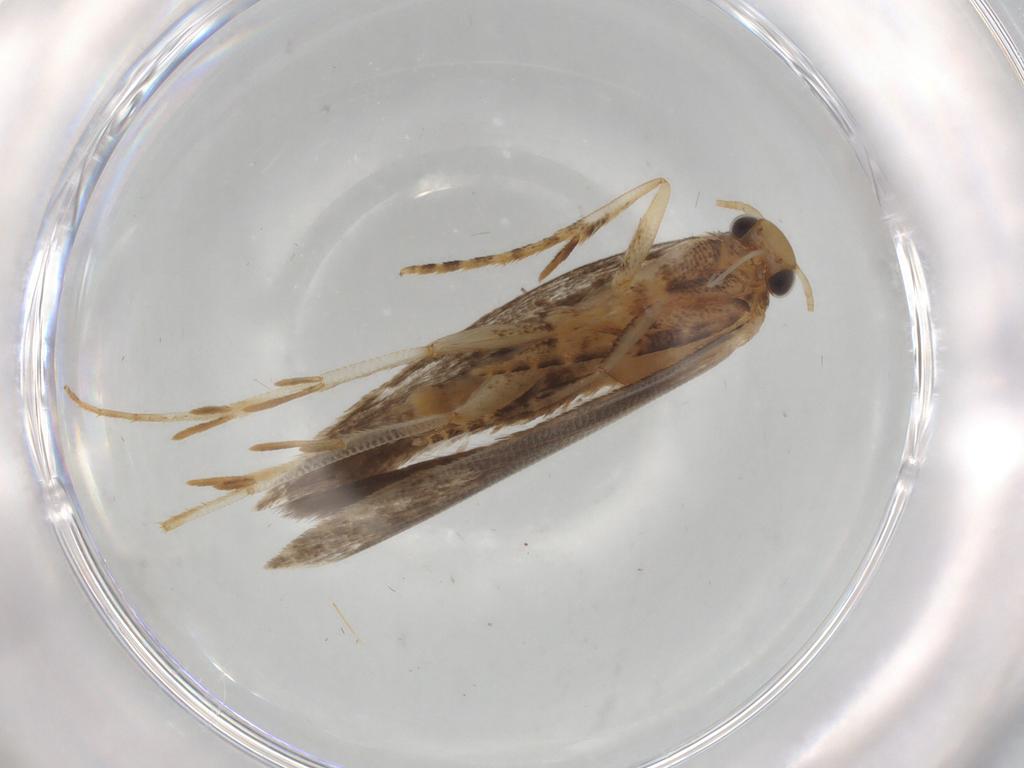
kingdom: Animalia
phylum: Arthropoda
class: Insecta
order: Lepidoptera
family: Gelechiidae
